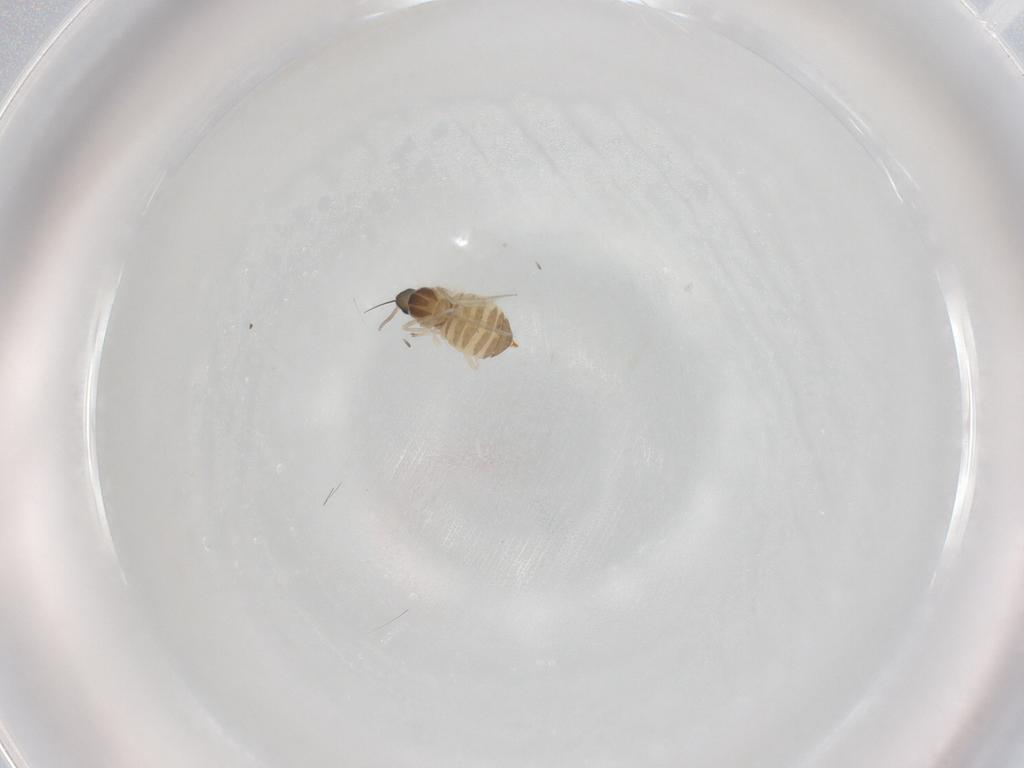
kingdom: Animalia
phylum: Arthropoda
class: Insecta
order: Diptera
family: Cecidomyiidae
